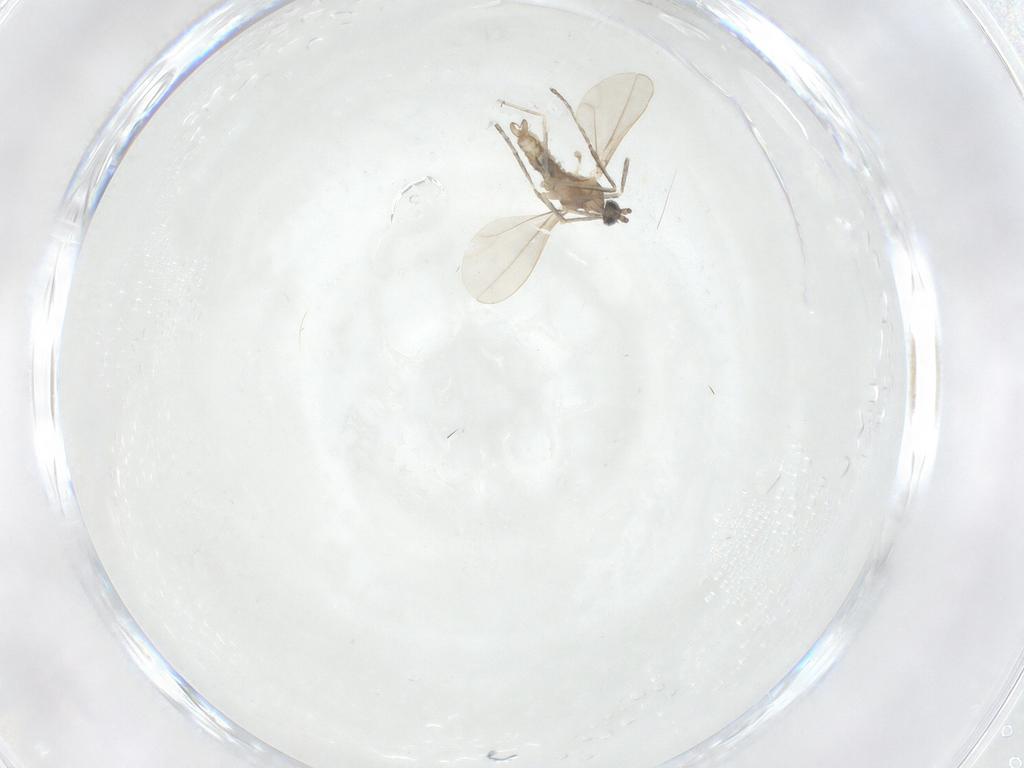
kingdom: Animalia
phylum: Arthropoda
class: Insecta
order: Diptera
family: Cecidomyiidae
